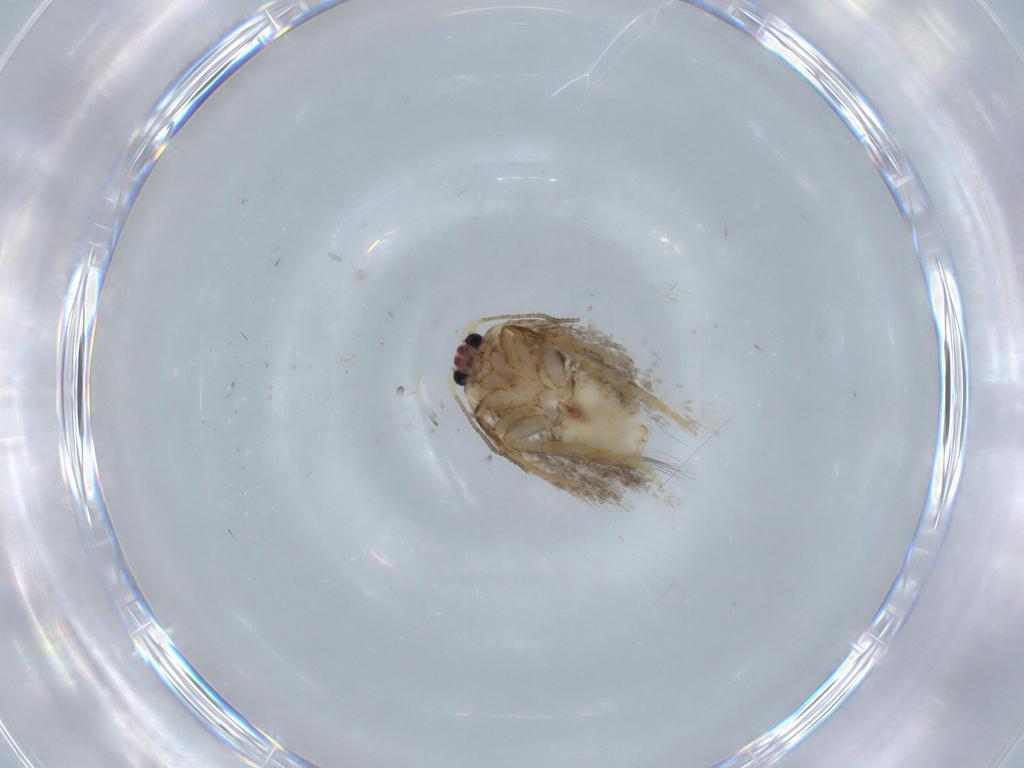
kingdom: Animalia
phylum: Arthropoda
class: Insecta
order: Lepidoptera
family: Nepticulidae
